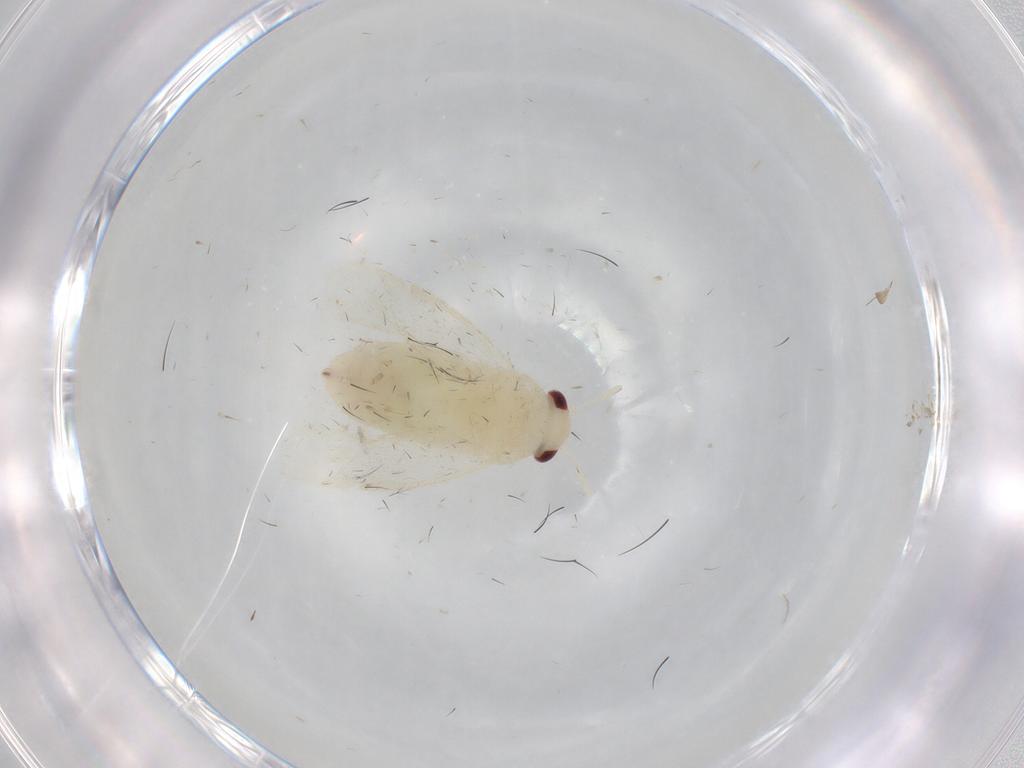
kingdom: Animalia
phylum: Arthropoda
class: Insecta
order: Hemiptera
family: Miridae
